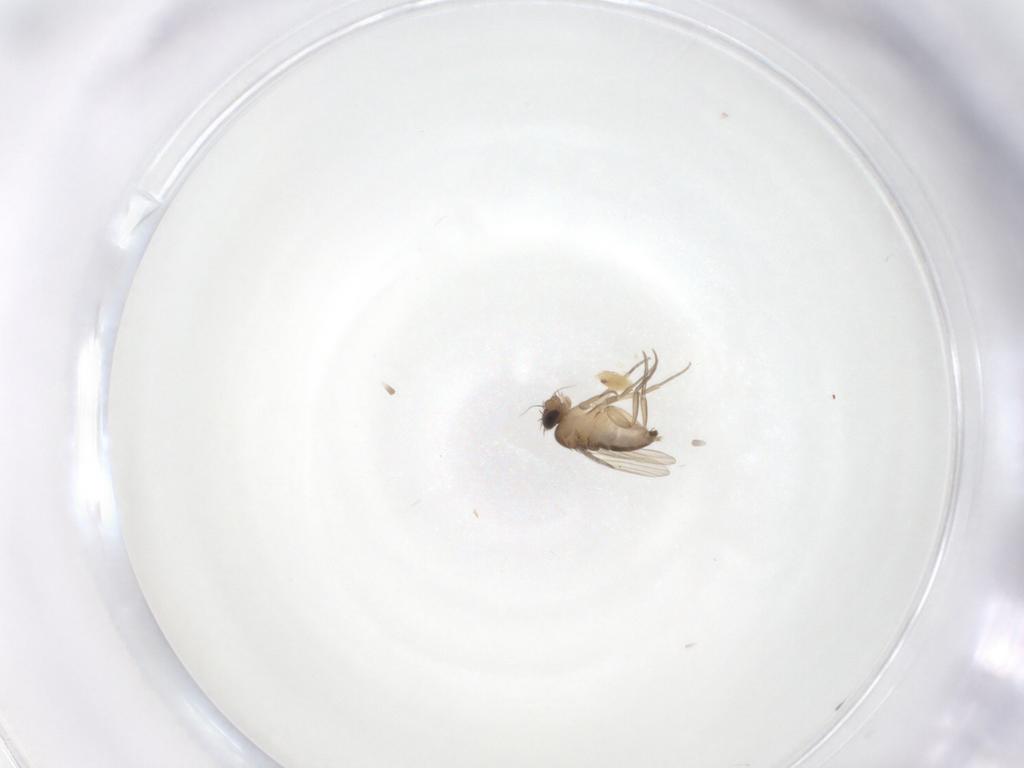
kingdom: Animalia
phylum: Arthropoda
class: Insecta
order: Diptera
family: Phoridae
